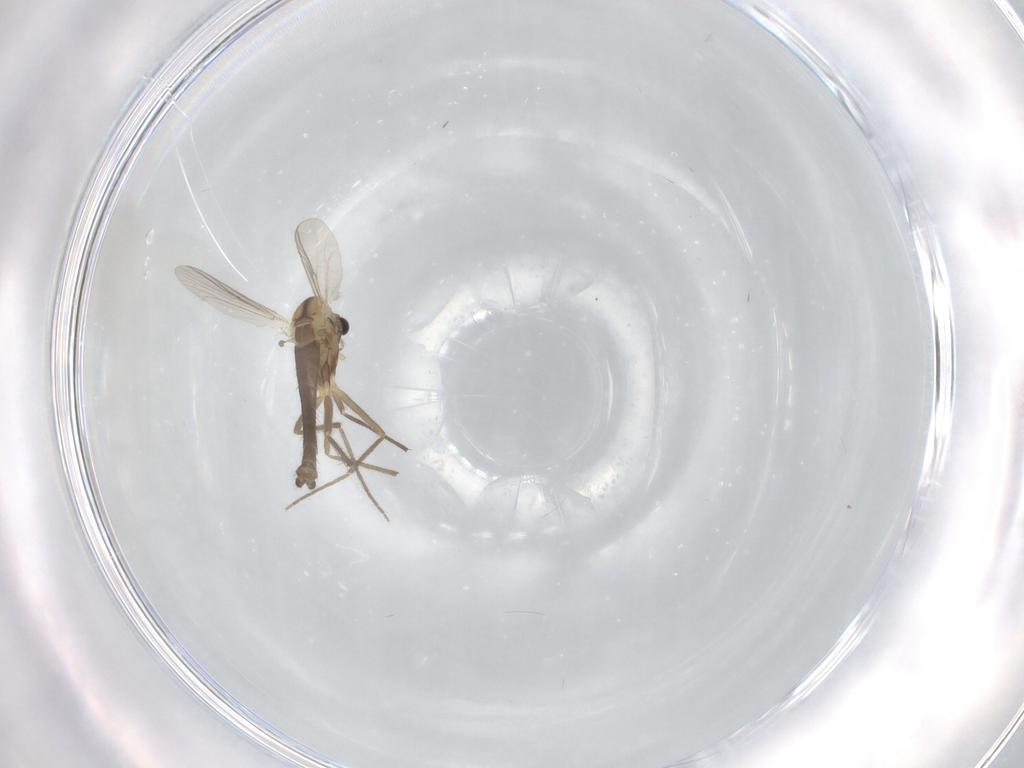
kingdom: Animalia
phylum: Arthropoda
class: Insecta
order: Diptera
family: Chironomidae
